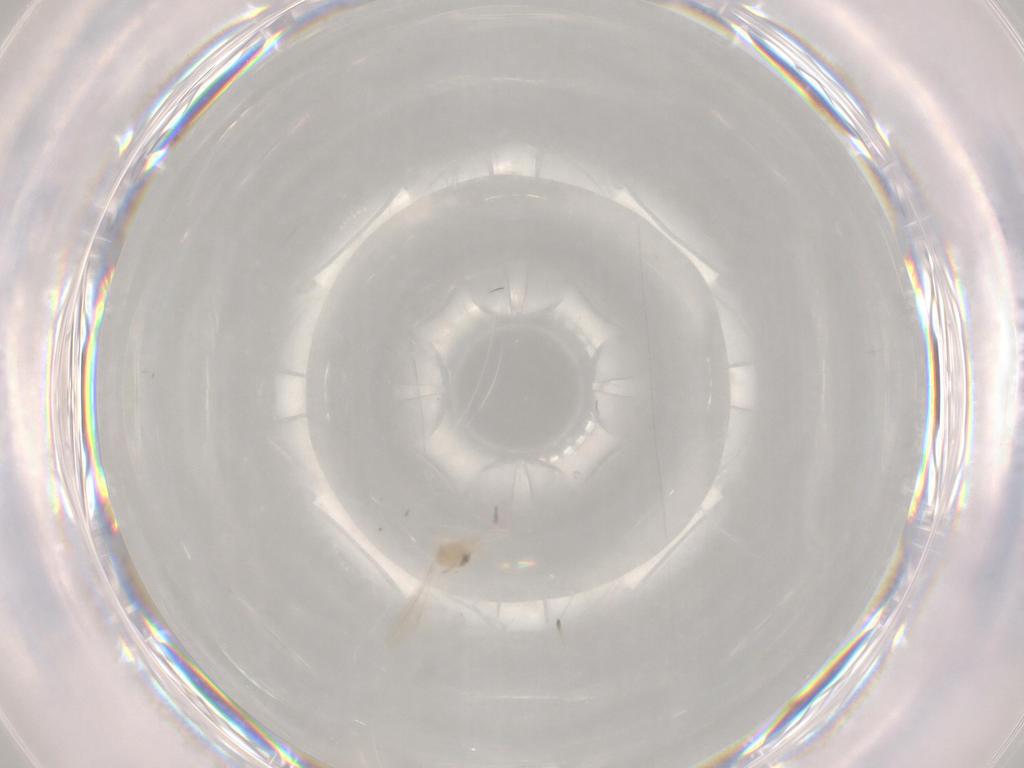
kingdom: Animalia
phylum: Arthropoda
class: Insecta
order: Diptera
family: Cecidomyiidae
